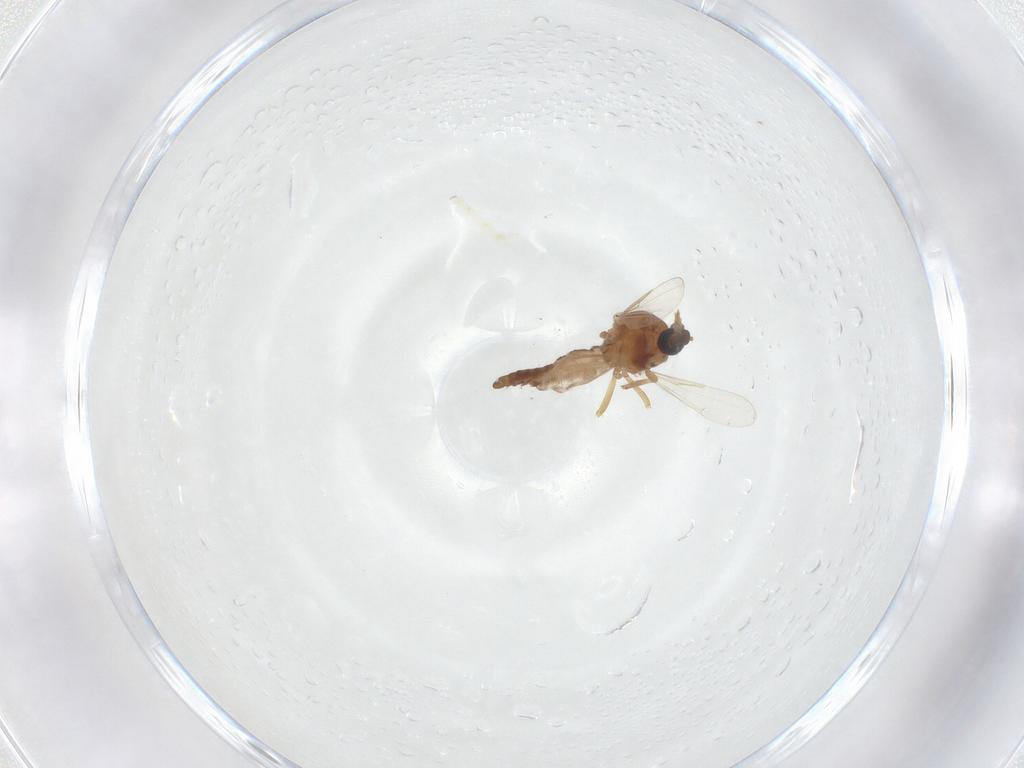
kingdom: Animalia
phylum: Arthropoda
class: Insecta
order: Diptera
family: Ceratopogonidae
